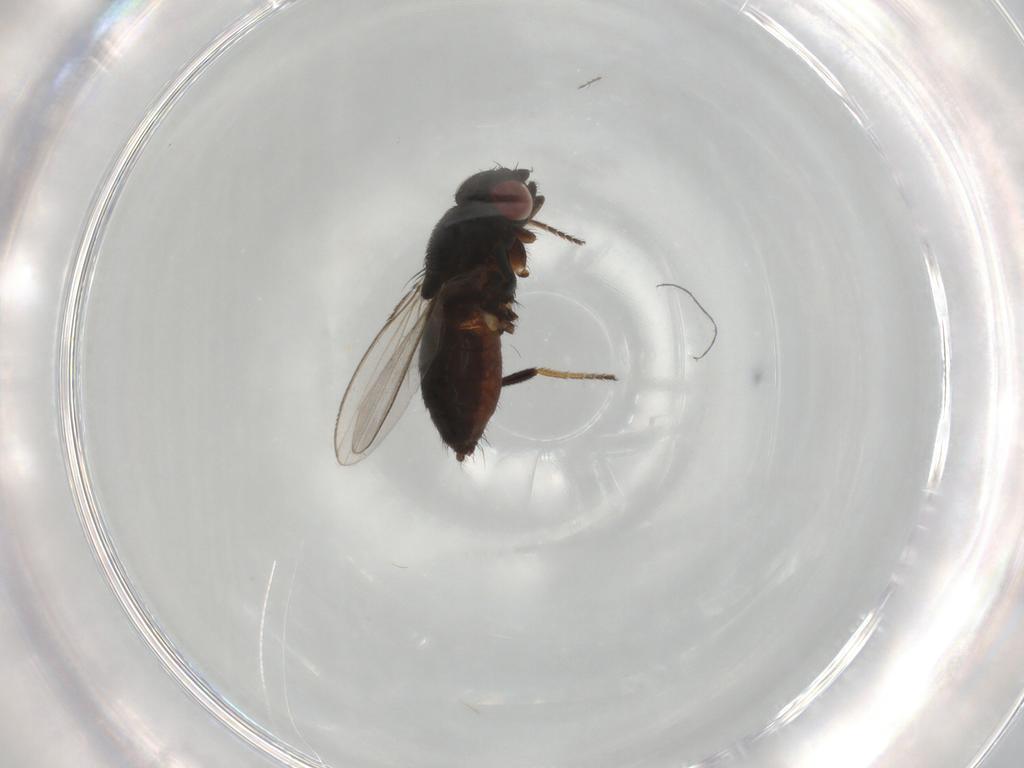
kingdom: Animalia
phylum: Arthropoda
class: Insecta
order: Diptera
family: Milichiidae
